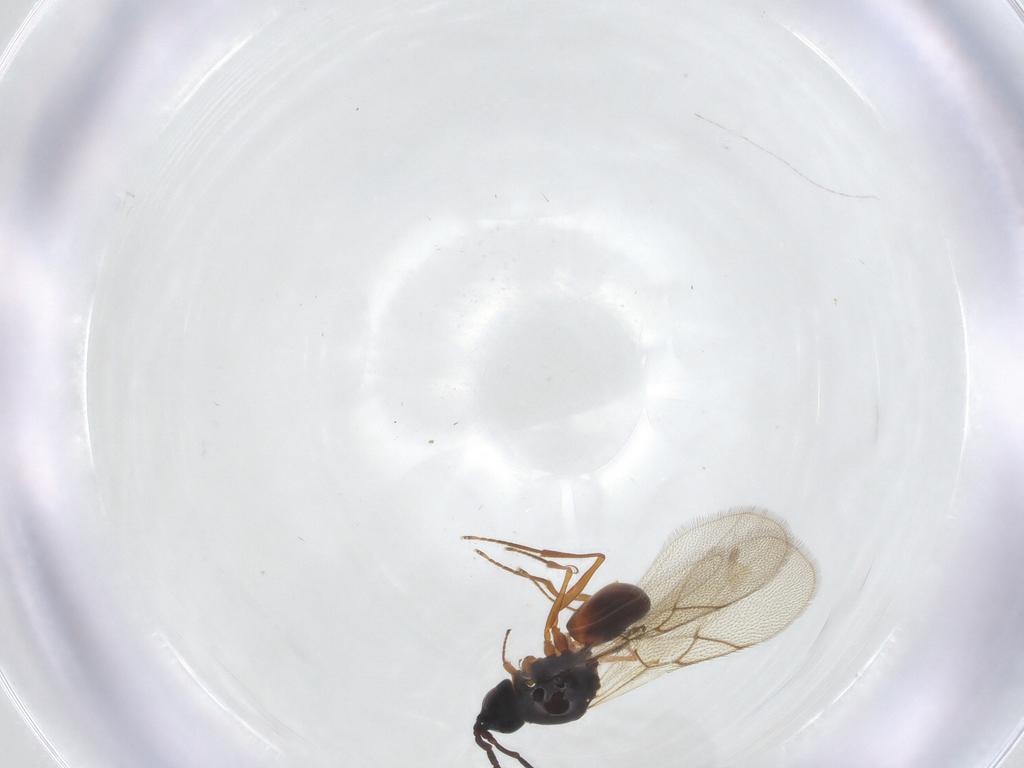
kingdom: Animalia
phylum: Arthropoda
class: Insecta
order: Hymenoptera
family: Figitidae
